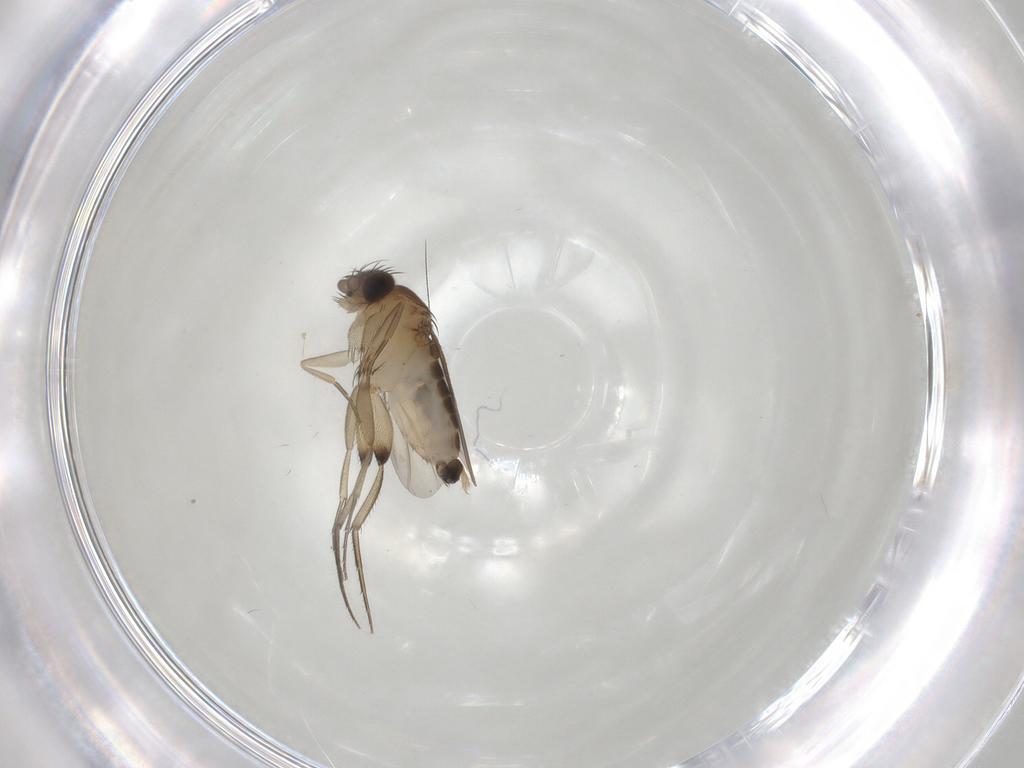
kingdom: Animalia
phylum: Arthropoda
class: Insecta
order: Diptera
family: Phoridae
